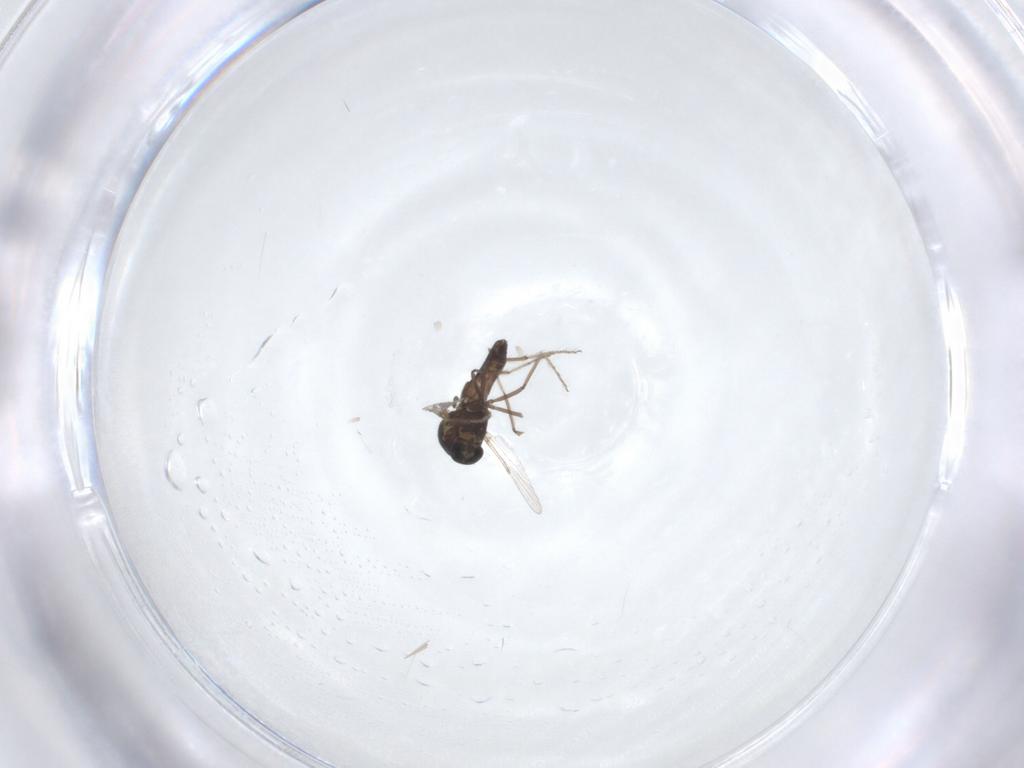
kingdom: Animalia
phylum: Arthropoda
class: Insecta
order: Diptera
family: Ceratopogonidae
